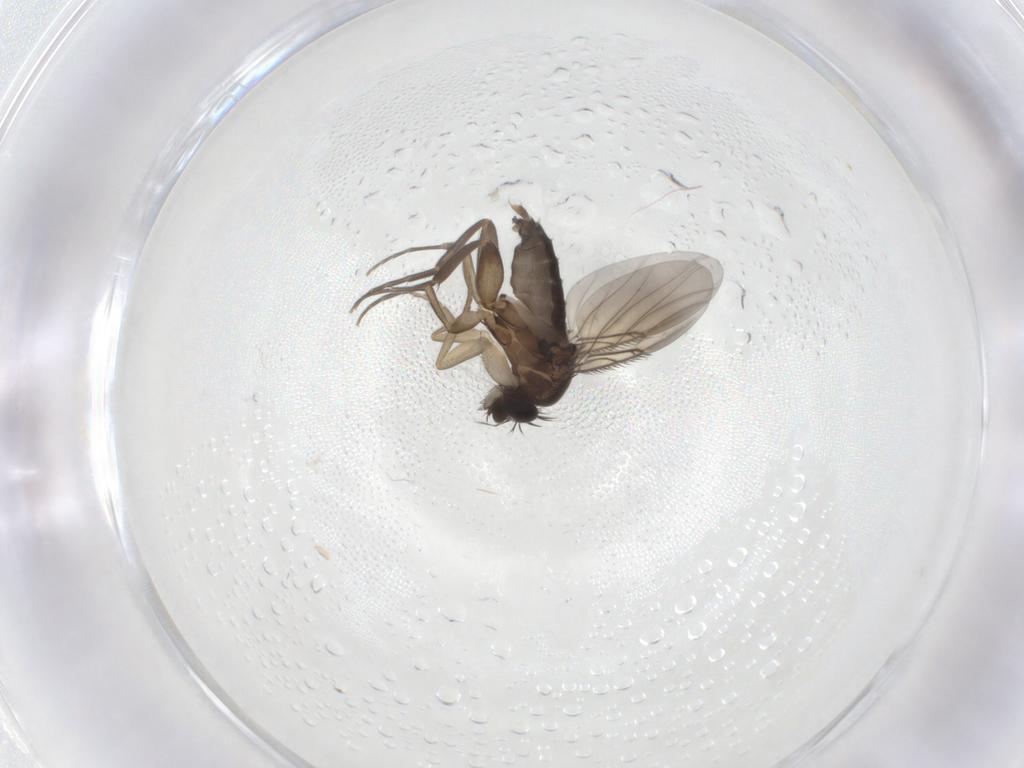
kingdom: Animalia
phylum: Arthropoda
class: Insecta
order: Diptera
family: Phoridae
